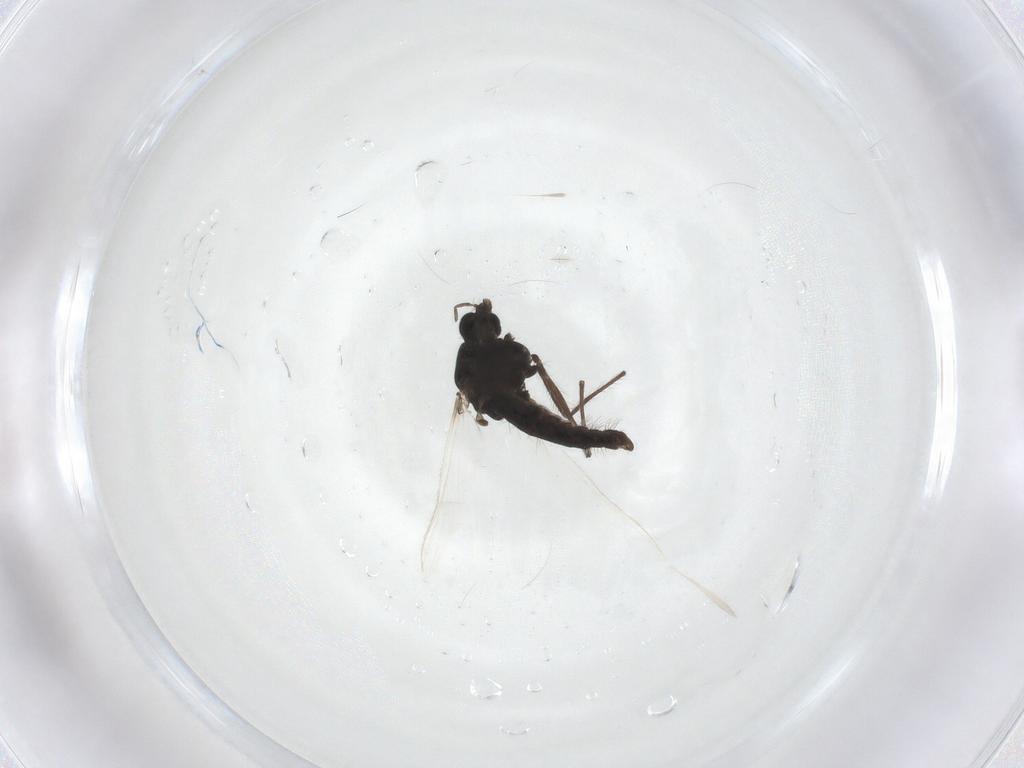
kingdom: Animalia
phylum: Arthropoda
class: Insecta
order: Diptera
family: Chironomidae
